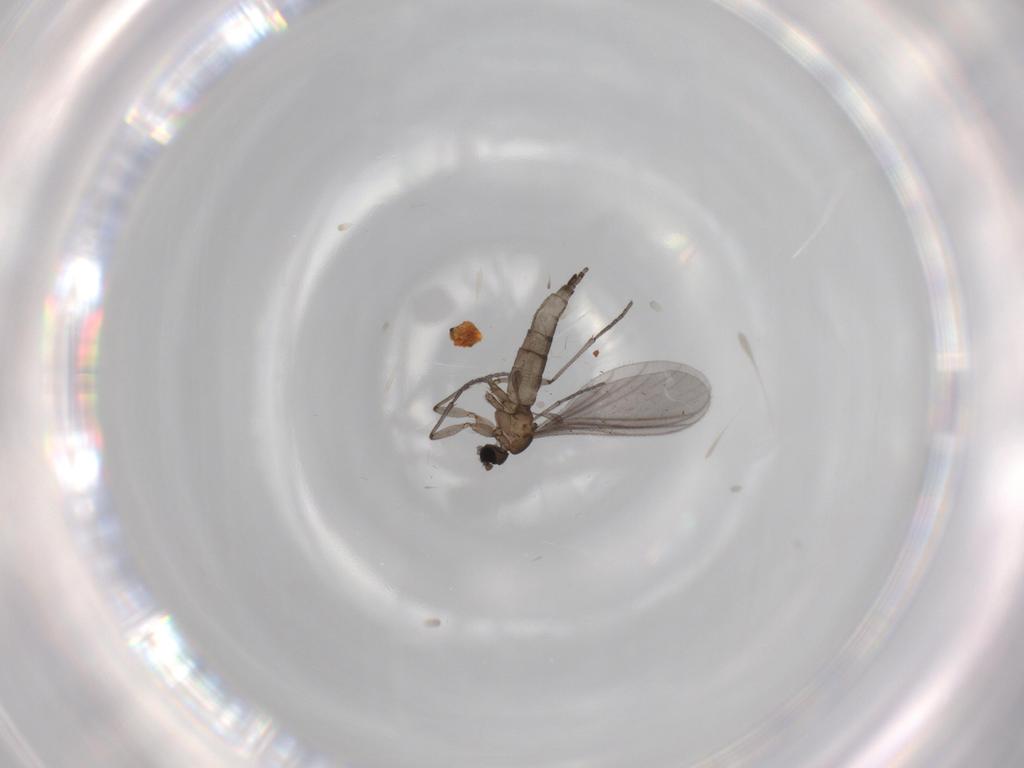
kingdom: Animalia
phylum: Arthropoda
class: Insecta
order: Diptera
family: Sciaridae
